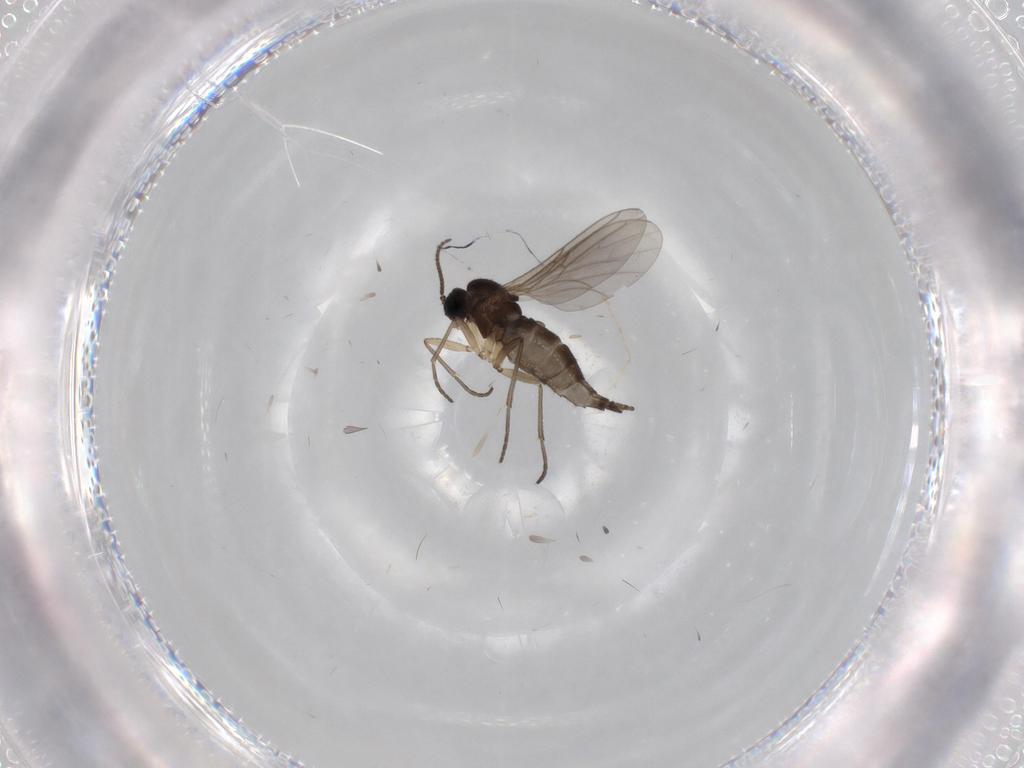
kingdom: Animalia
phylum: Arthropoda
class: Insecta
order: Diptera
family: Sciaridae
